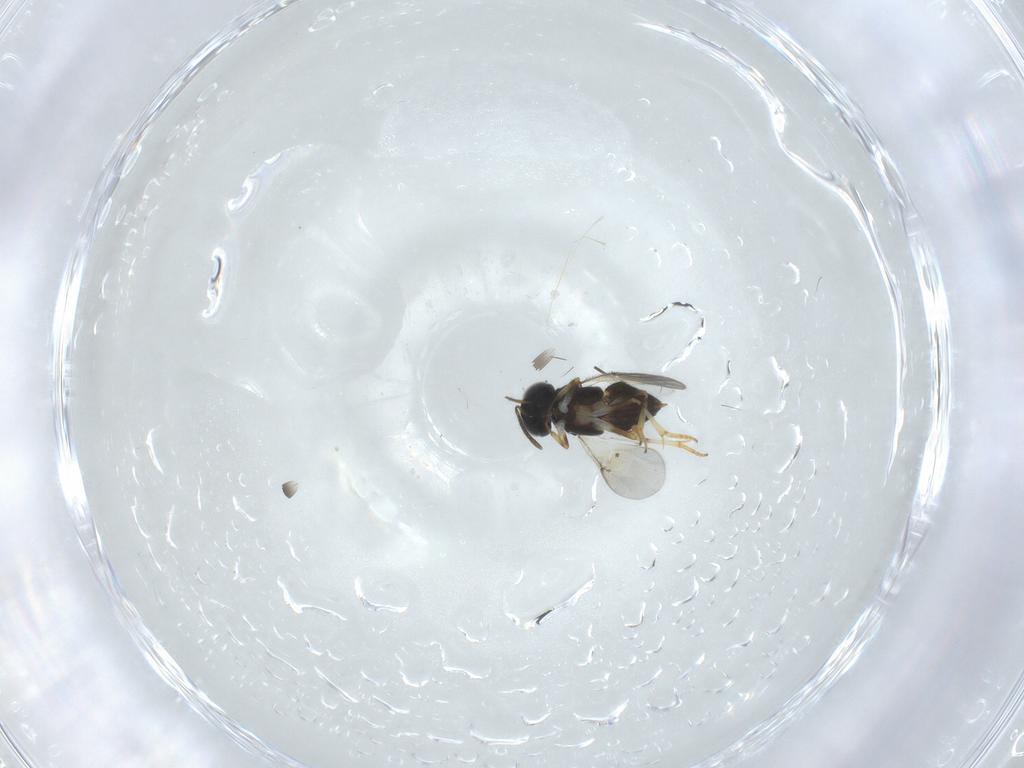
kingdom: Animalia
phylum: Arthropoda
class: Insecta
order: Hymenoptera
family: Encyrtidae
